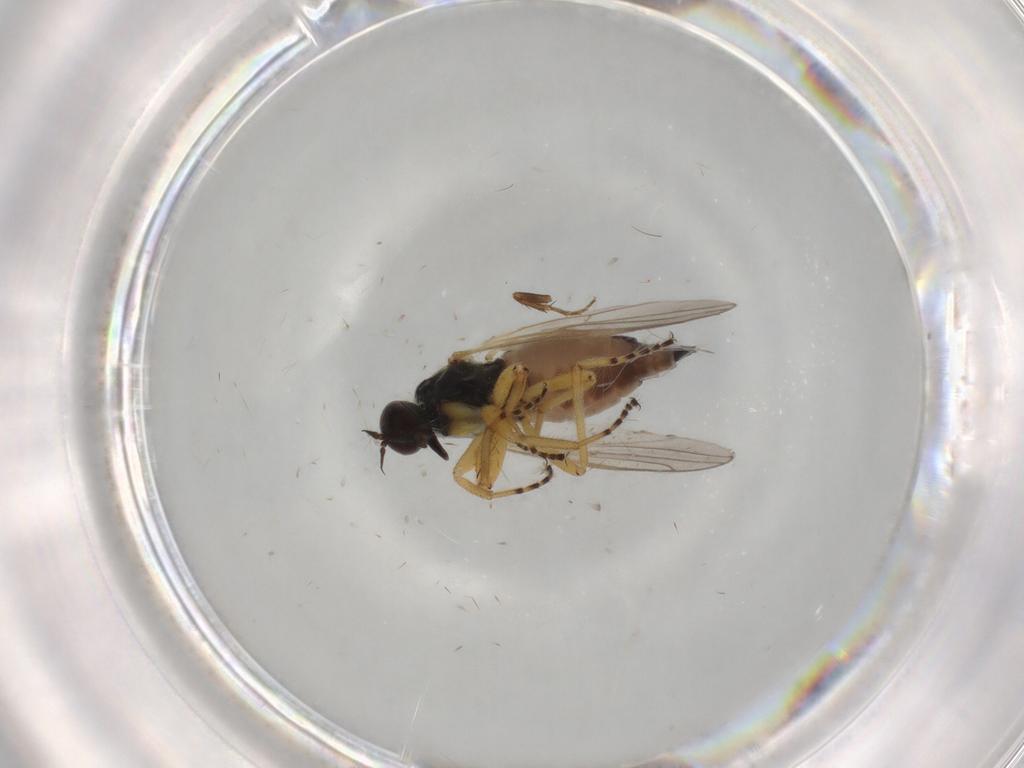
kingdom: Animalia
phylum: Arthropoda
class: Insecta
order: Diptera
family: Hybotidae
